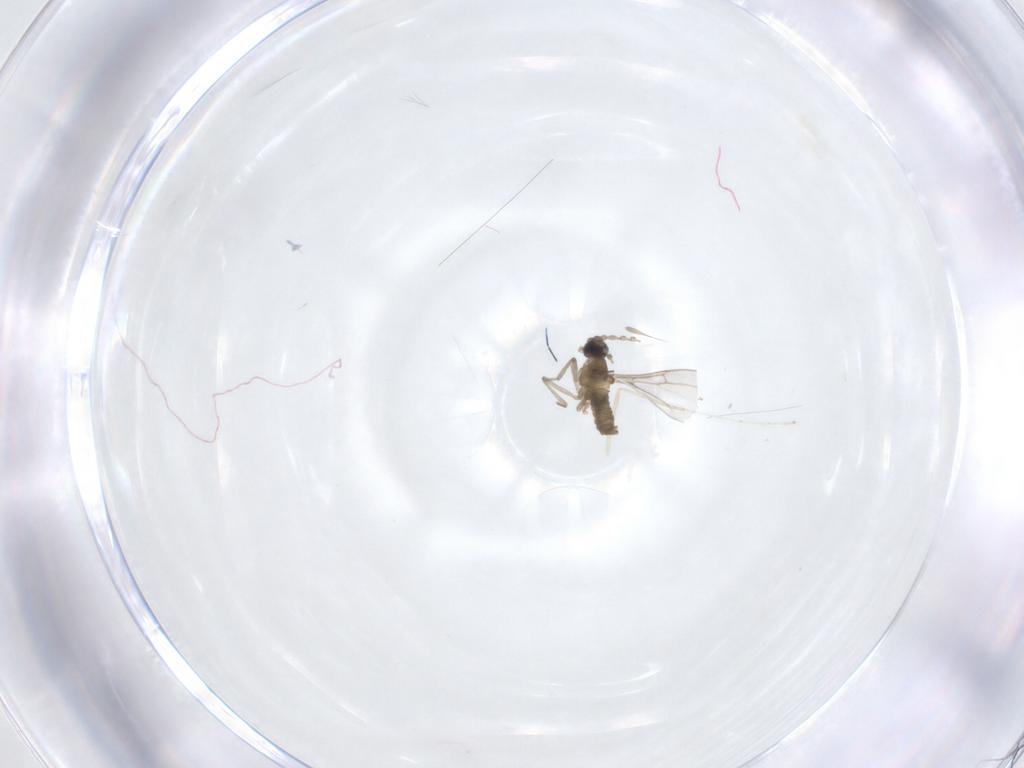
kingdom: Animalia
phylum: Arthropoda
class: Insecta
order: Diptera
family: Cecidomyiidae
